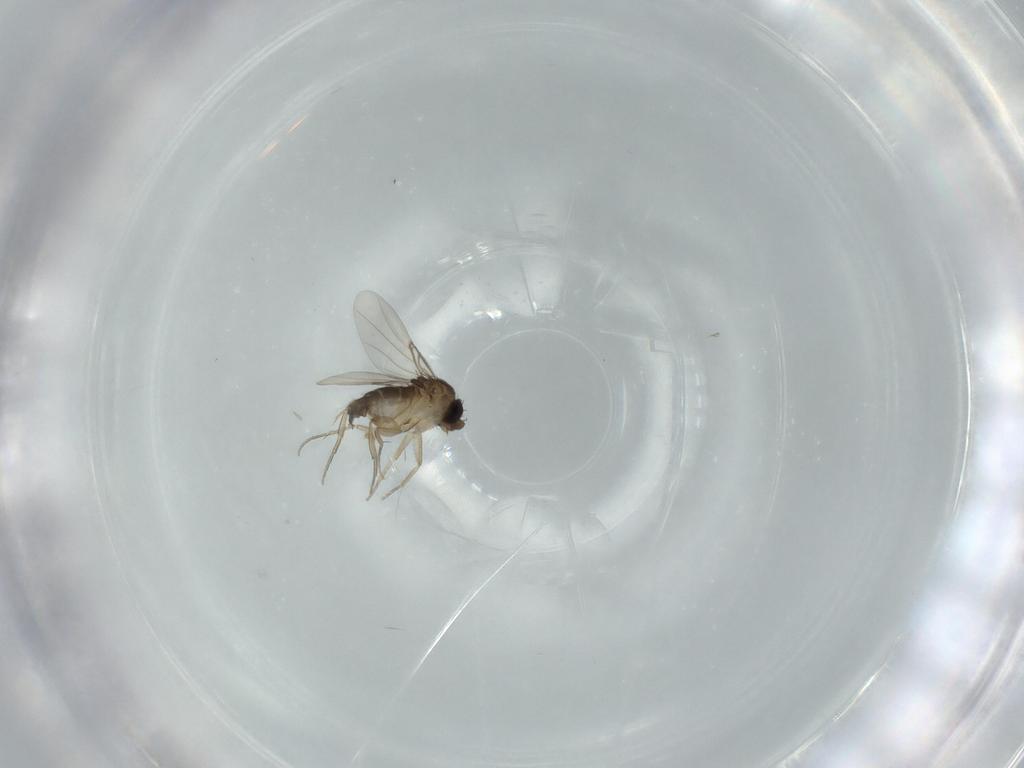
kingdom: Animalia
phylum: Arthropoda
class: Insecta
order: Diptera
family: Phoridae
